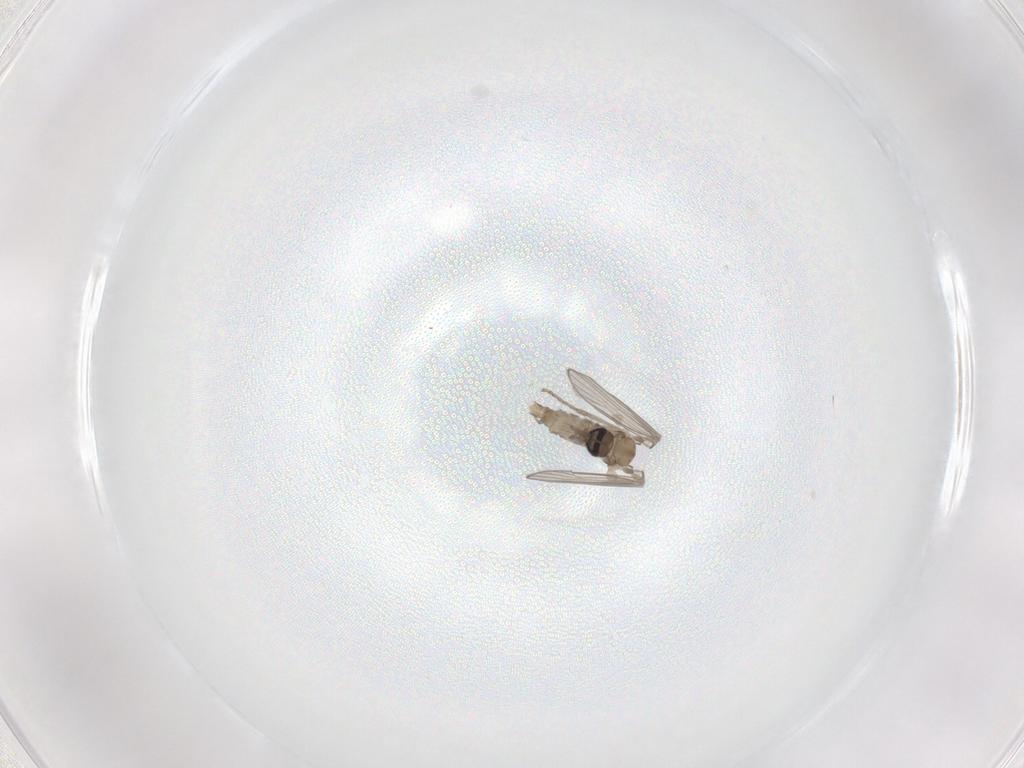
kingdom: Animalia
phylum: Arthropoda
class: Insecta
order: Diptera
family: Psychodidae
